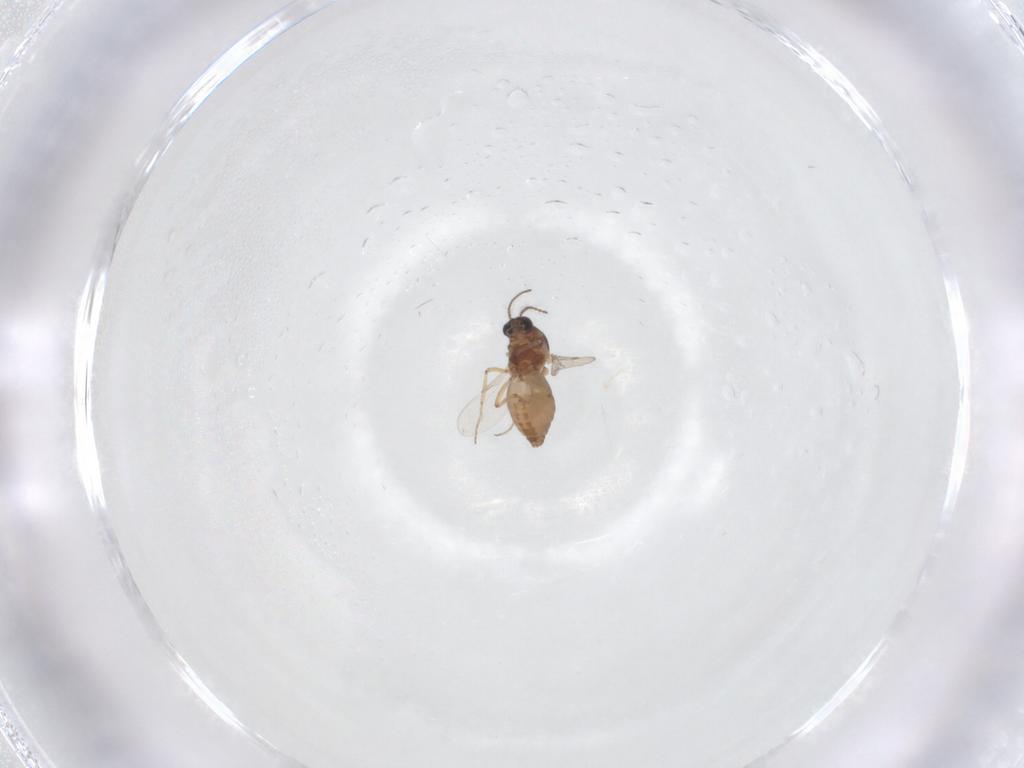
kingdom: Animalia
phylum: Arthropoda
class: Insecta
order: Diptera
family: Ceratopogonidae
